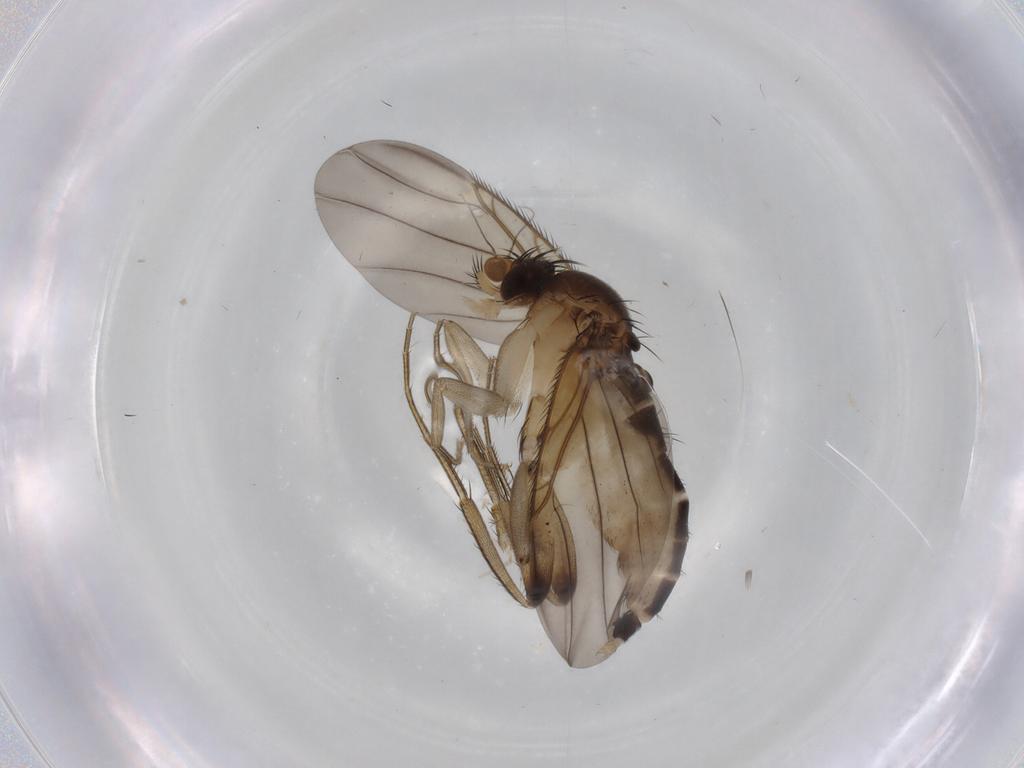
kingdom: Animalia
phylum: Arthropoda
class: Insecta
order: Diptera
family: Phoridae
